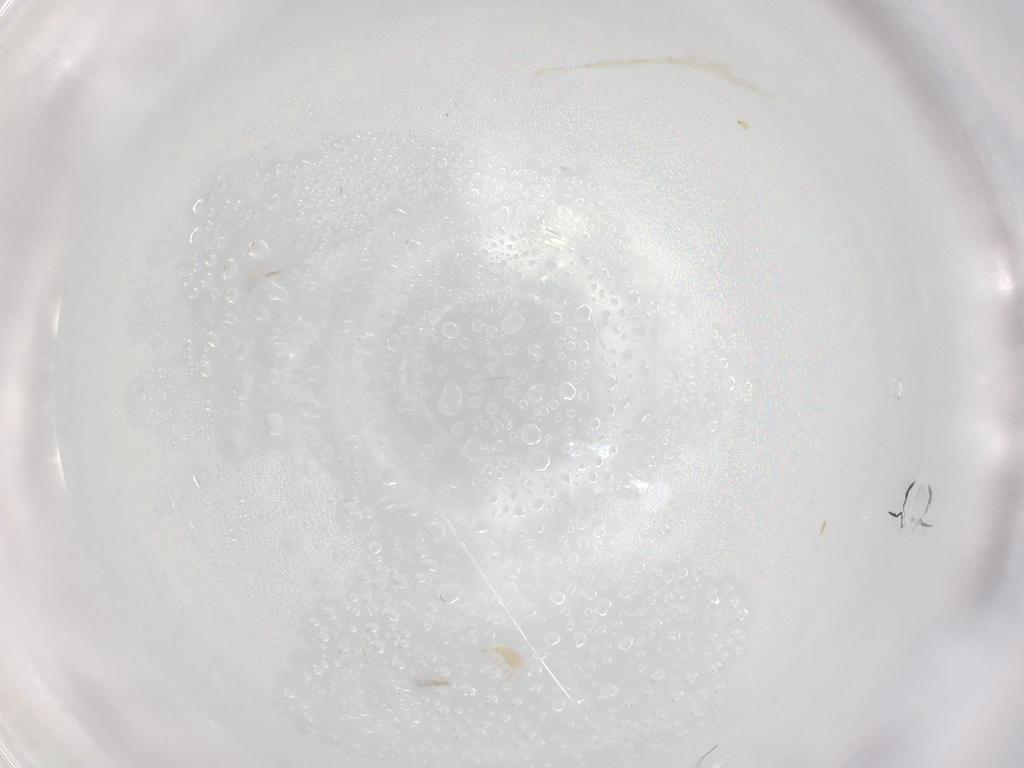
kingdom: Animalia
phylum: Arthropoda
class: Arachnida
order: Araneae
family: Anyphaenidae
